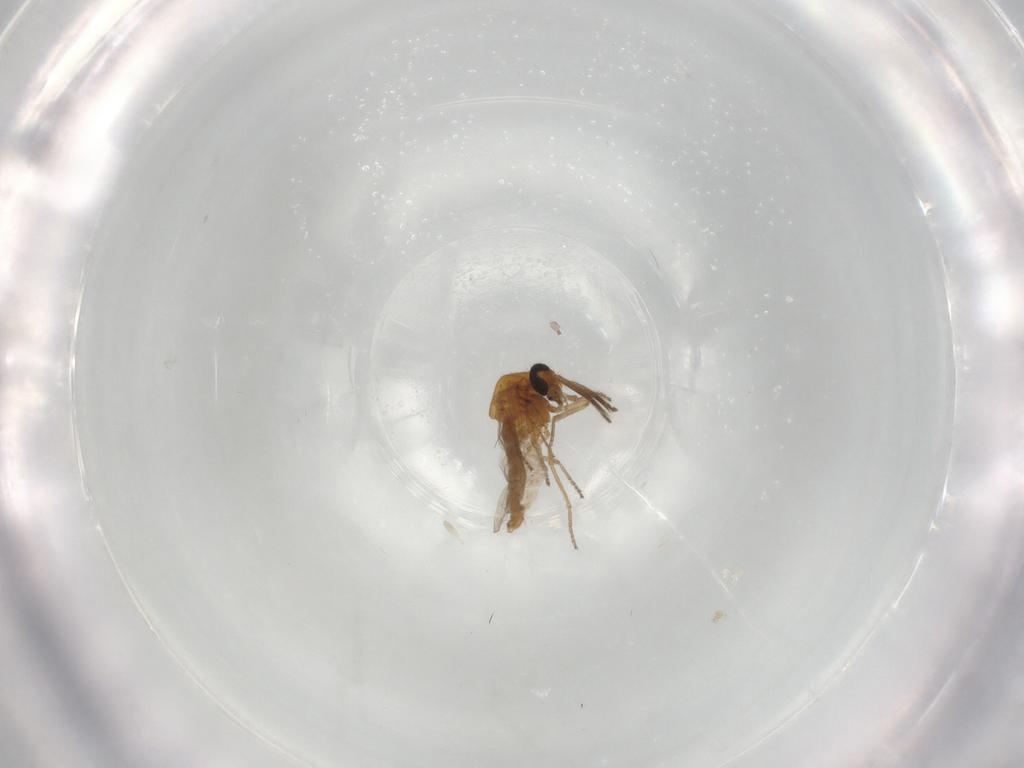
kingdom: Animalia
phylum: Arthropoda
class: Insecta
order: Diptera
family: Ceratopogonidae
